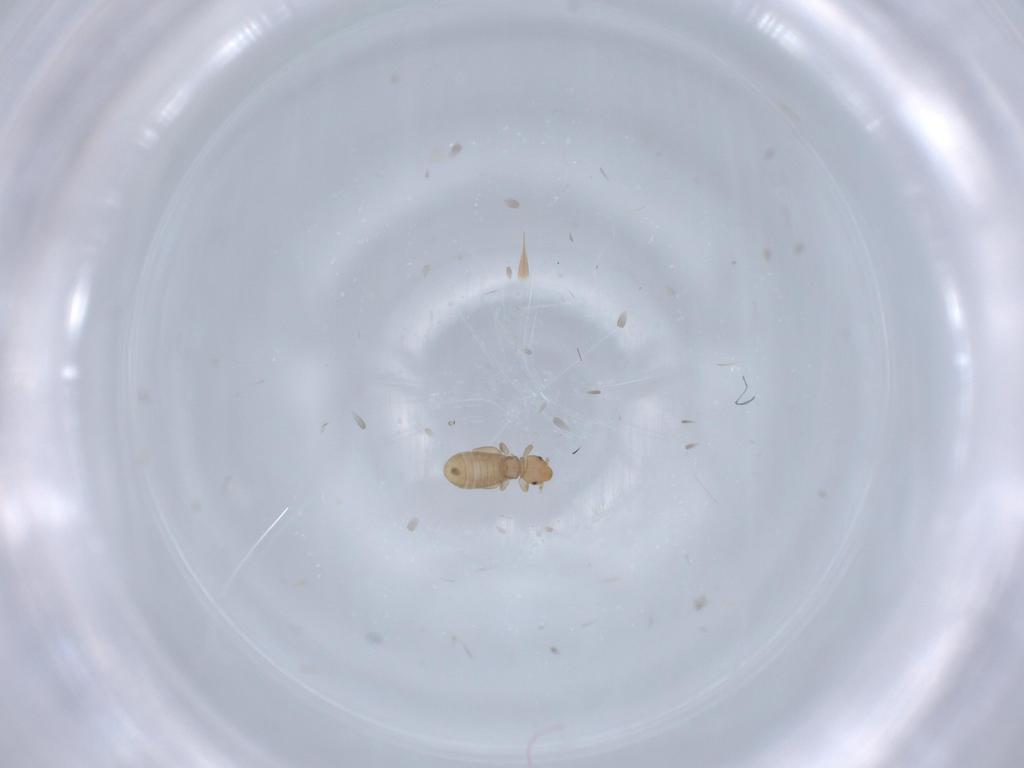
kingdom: Animalia
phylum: Arthropoda
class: Insecta
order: Psocodea
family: Liposcelididae
